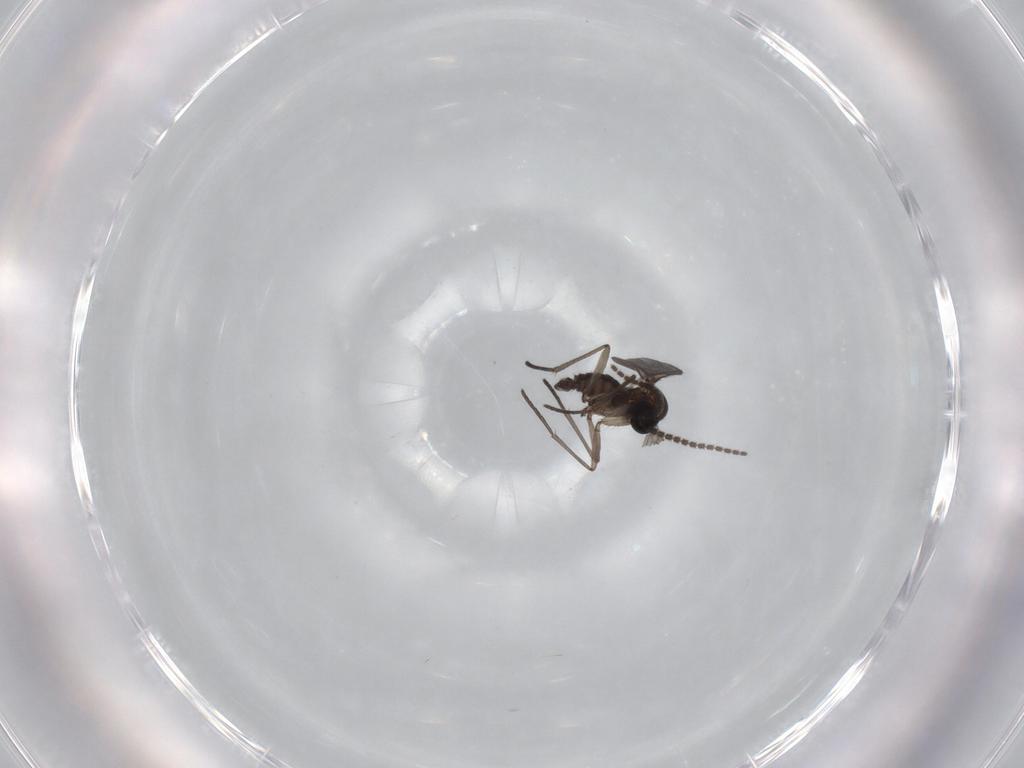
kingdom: Animalia
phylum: Arthropoda
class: Insecta
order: Diptera
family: Sciaridae
